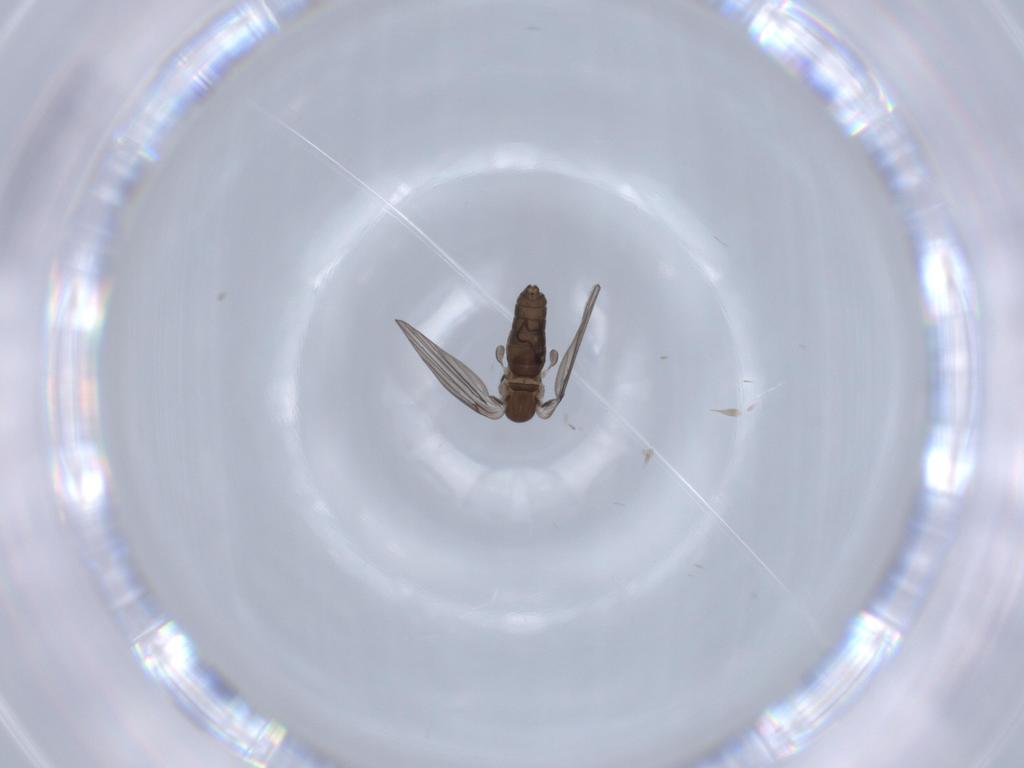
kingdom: Animalia
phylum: Arthropoda
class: Insecta
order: Diptera
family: Psychodidae
